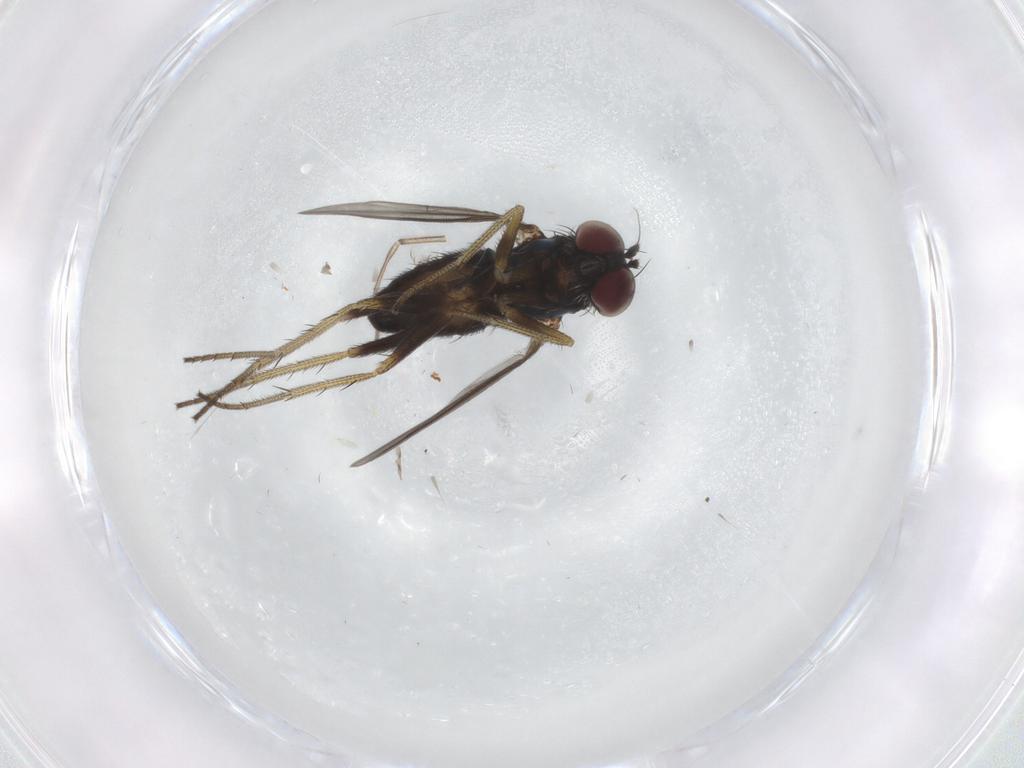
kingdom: Animalia
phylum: Arthropoda
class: Insecta
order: Diptera
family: Cecidomyiidae
